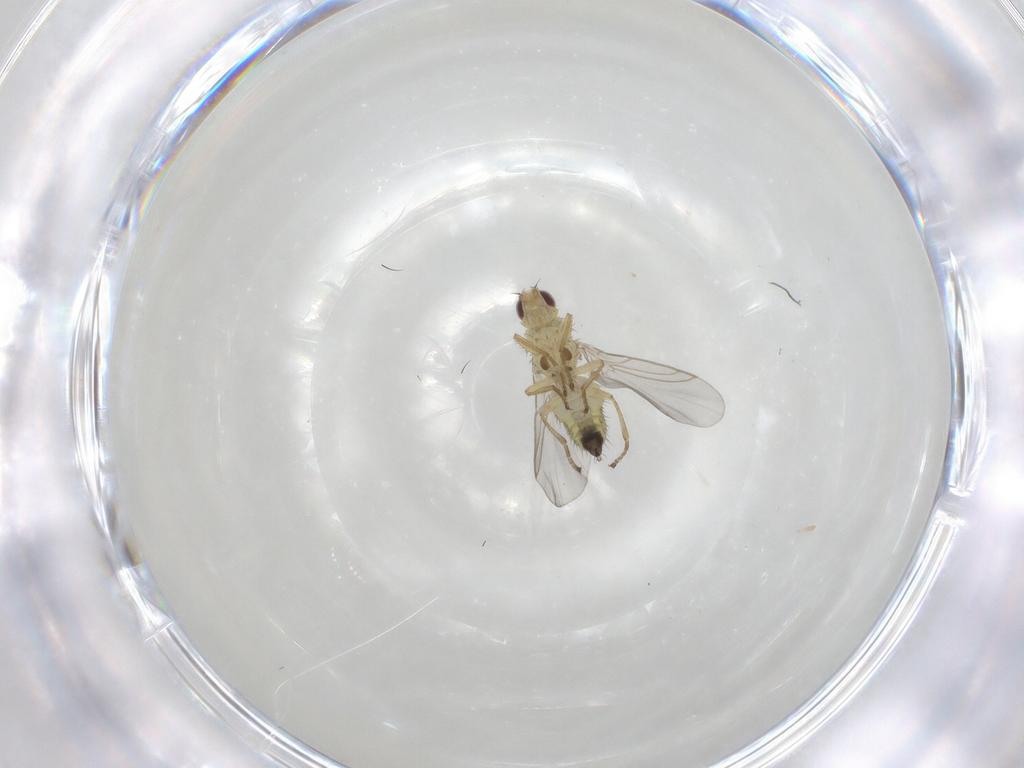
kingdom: Animalia
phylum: Arthropoda
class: Insecta
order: Diptera
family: Agromyzidae
